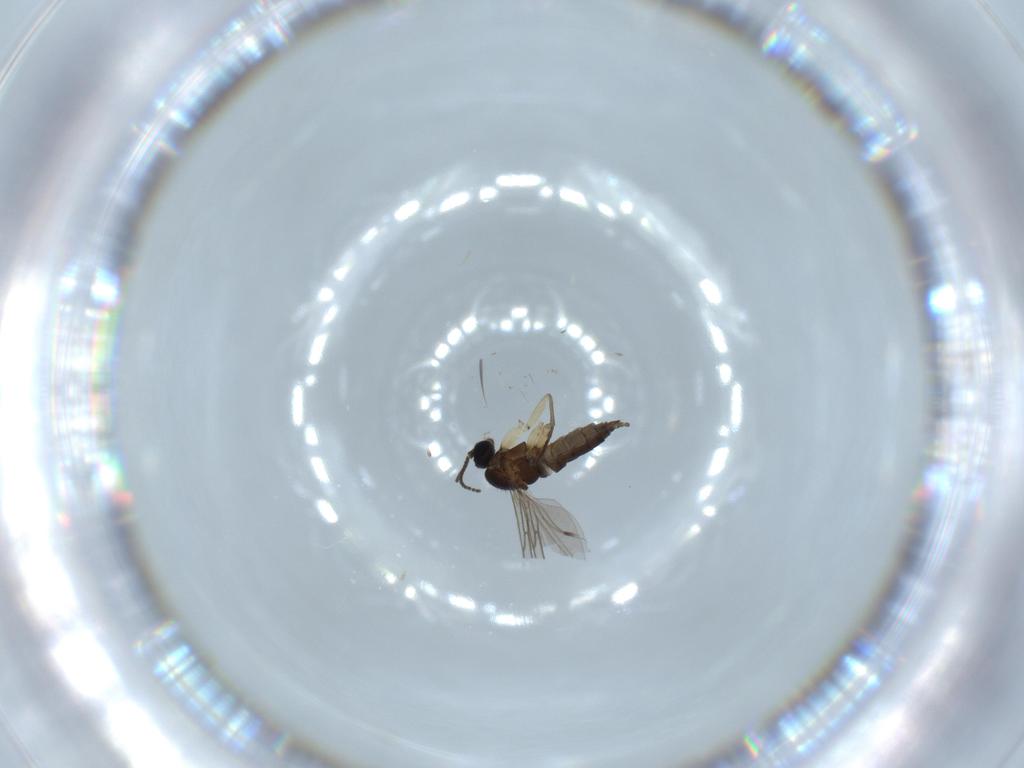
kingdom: Animalia
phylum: Arthropoda
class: Insecta
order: Diptera
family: Sciaridae
